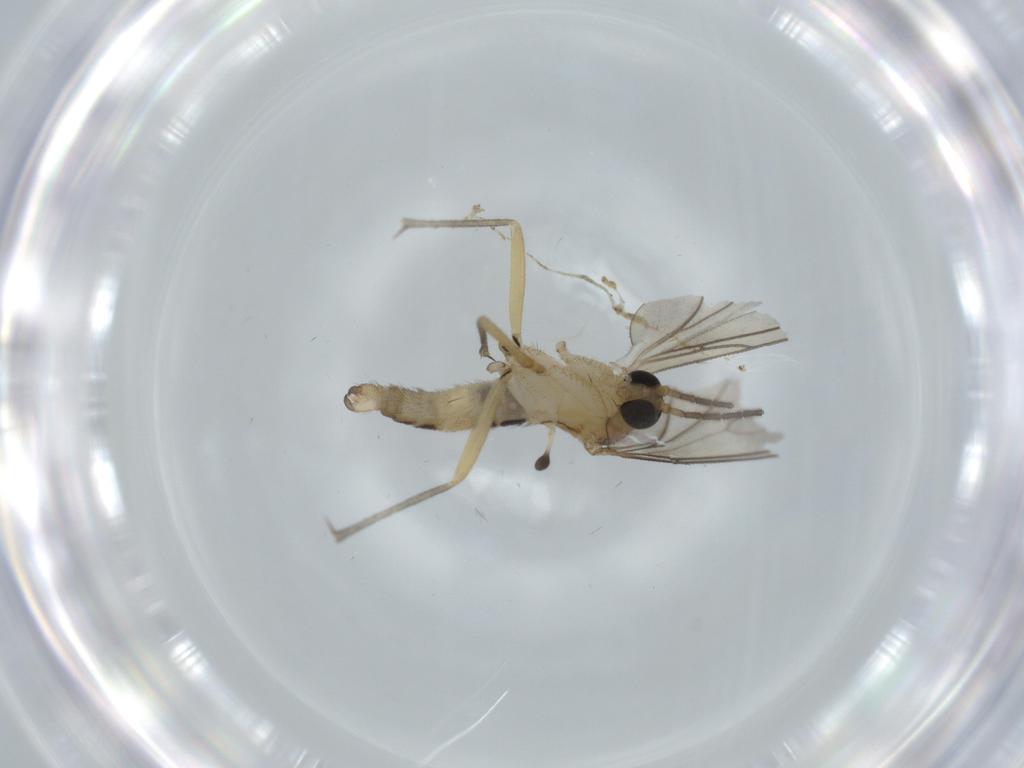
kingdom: Animalia
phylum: Arthropoda
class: Insecta
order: Diptera
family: Sciaridae
